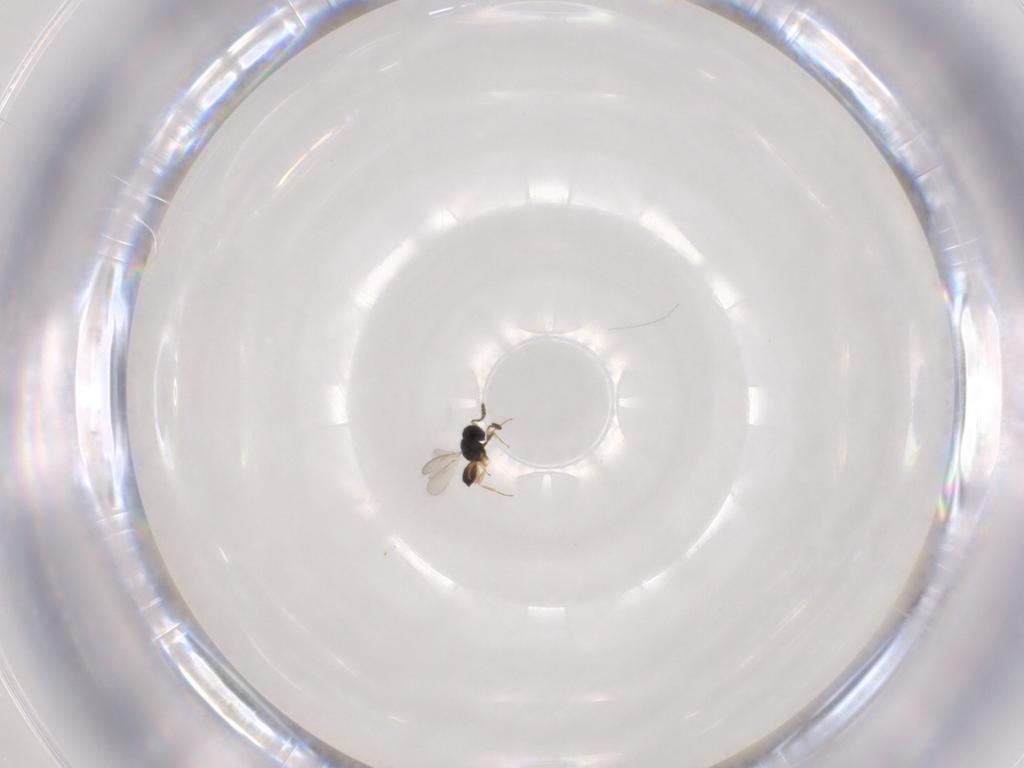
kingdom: Animalia
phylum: Arthropoda
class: Insecta
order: Hymenoptera
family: Scelionidae
